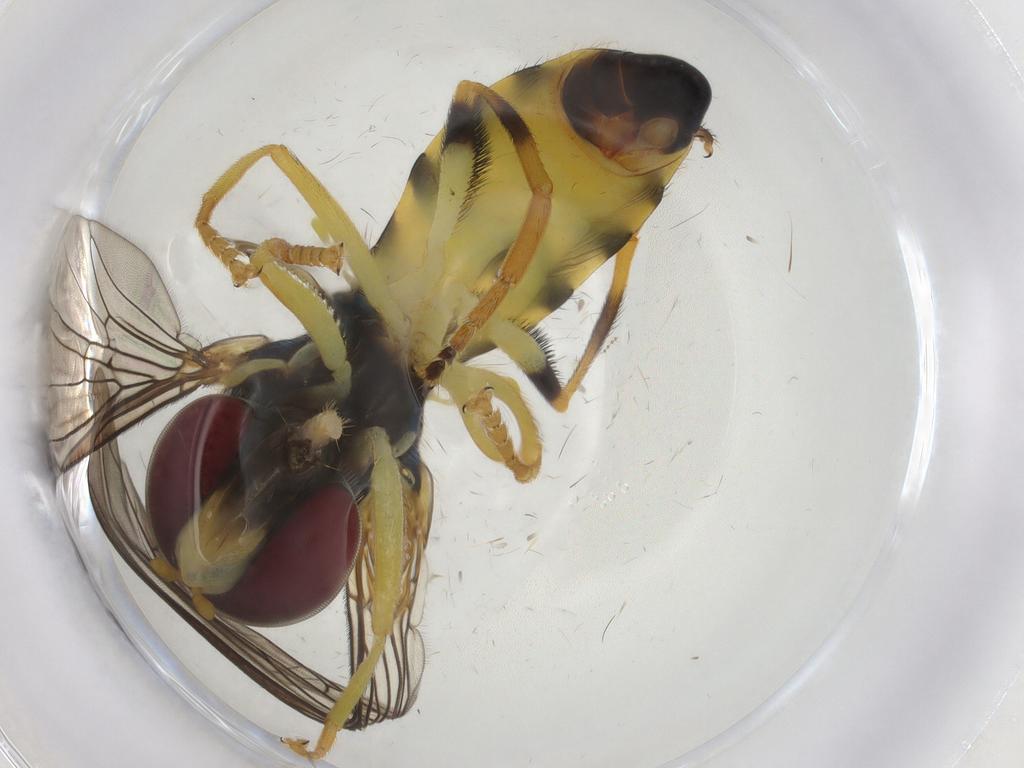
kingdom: Animalia
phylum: Arthropoda
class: Insecta
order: Diptera
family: Syrphidae
